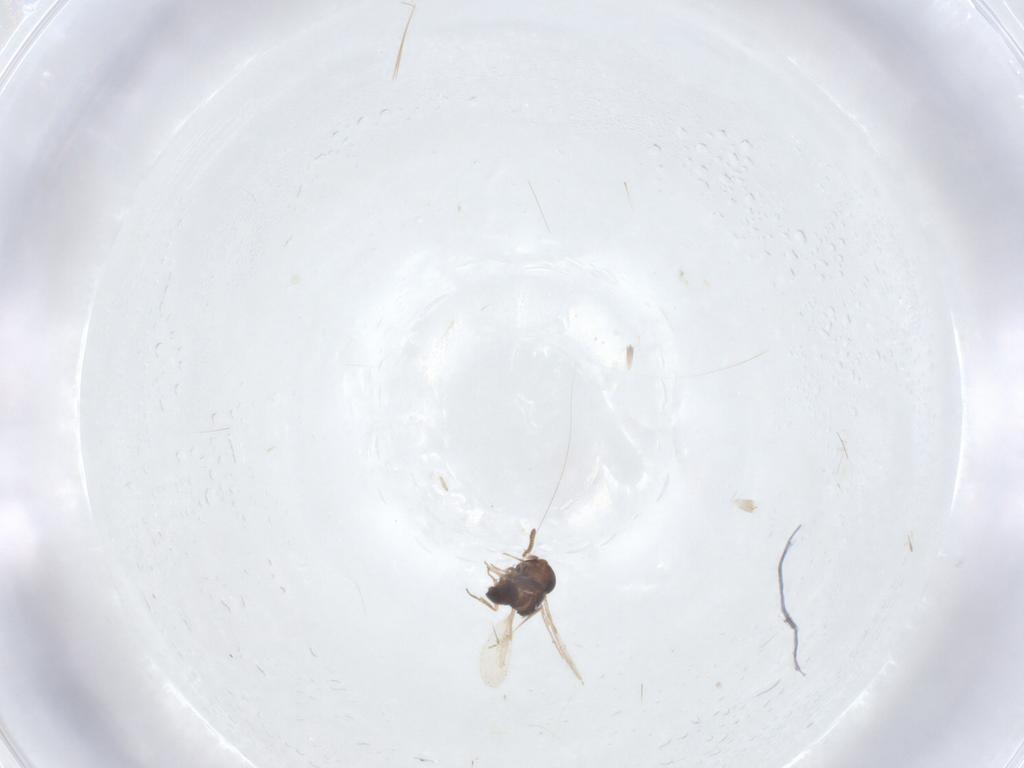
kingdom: Animalia
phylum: Arthropoda
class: Insecta
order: Hymenoptera
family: Scelionidae
